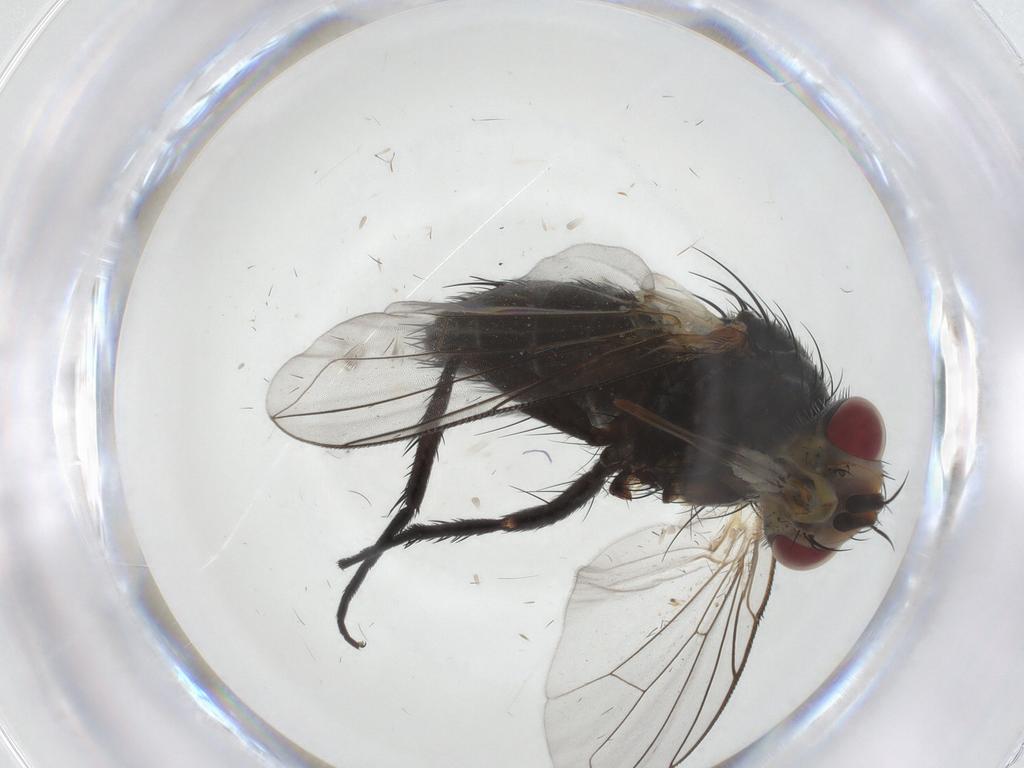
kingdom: Animalia
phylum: Arthropoda
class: Insecta
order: Diptera
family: Tachinidae
